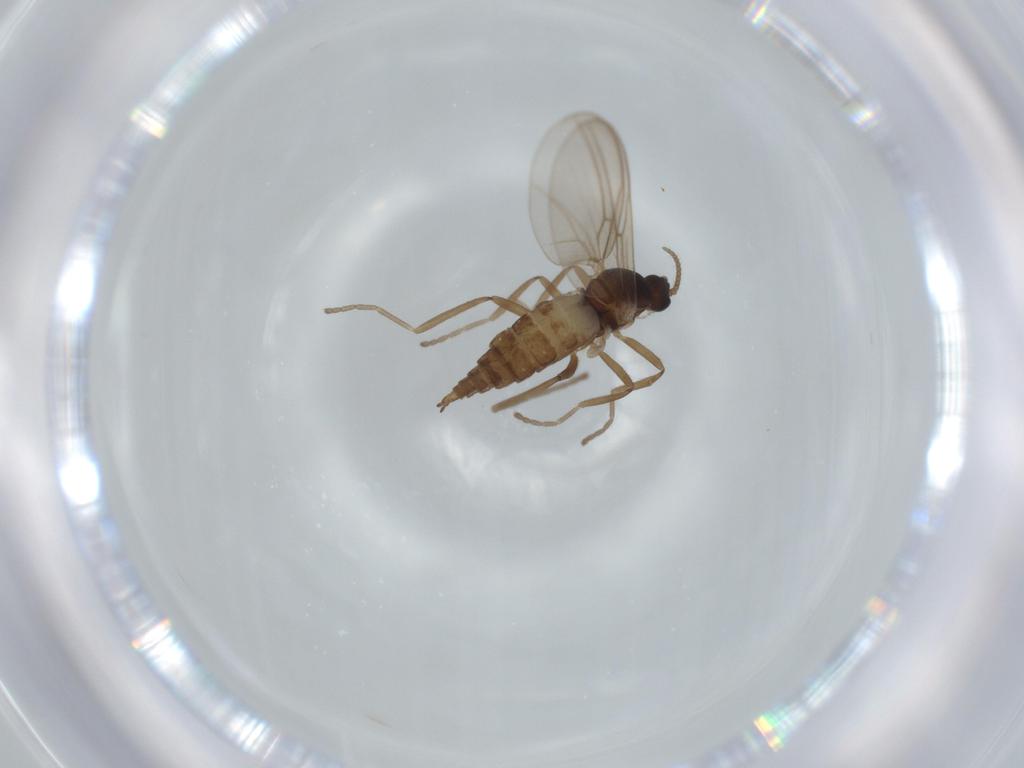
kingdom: Animalia
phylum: Arthropoda
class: Insecta
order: Diptera
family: Cecidomyiidae
